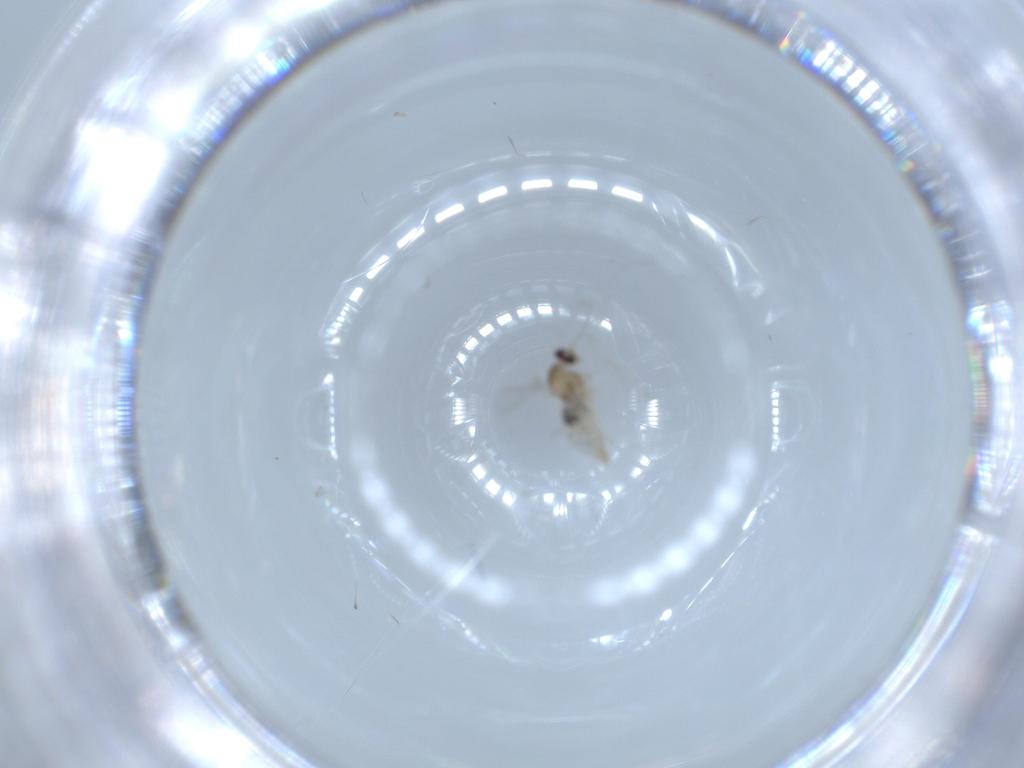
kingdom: Animalia
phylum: Arthropoda
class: Insecta
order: Diptera
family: Cecidomyiidae
